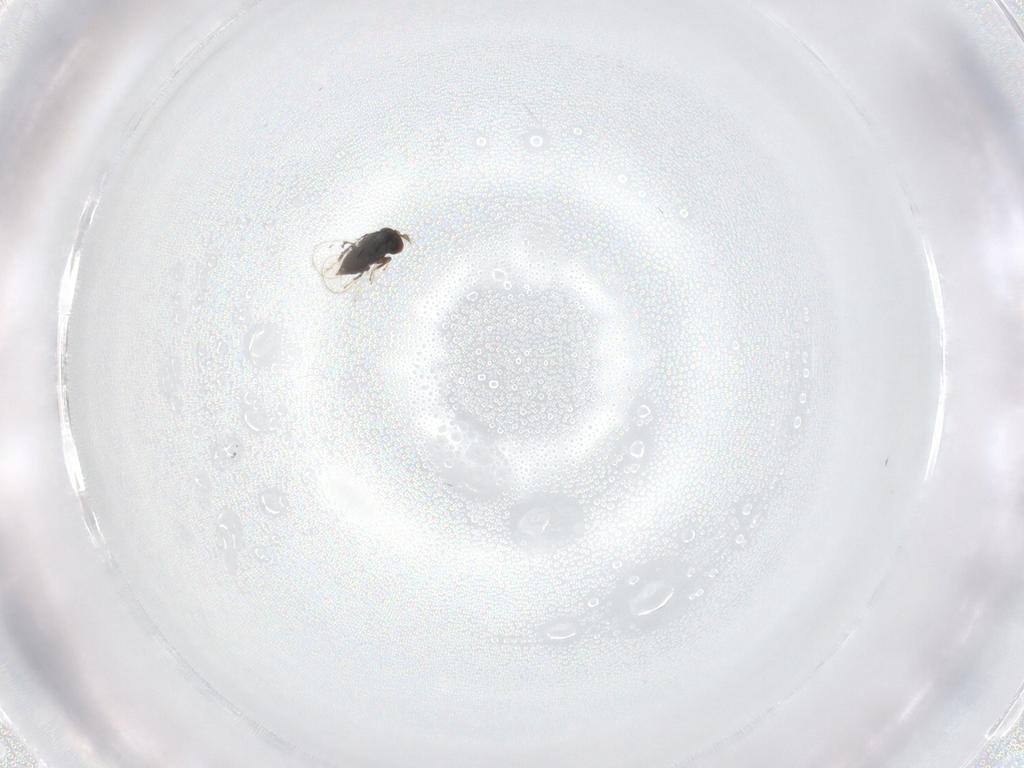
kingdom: Animalia
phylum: Arthropoda
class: Insecta
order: Hymenoptera
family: Trichogrammatidae
